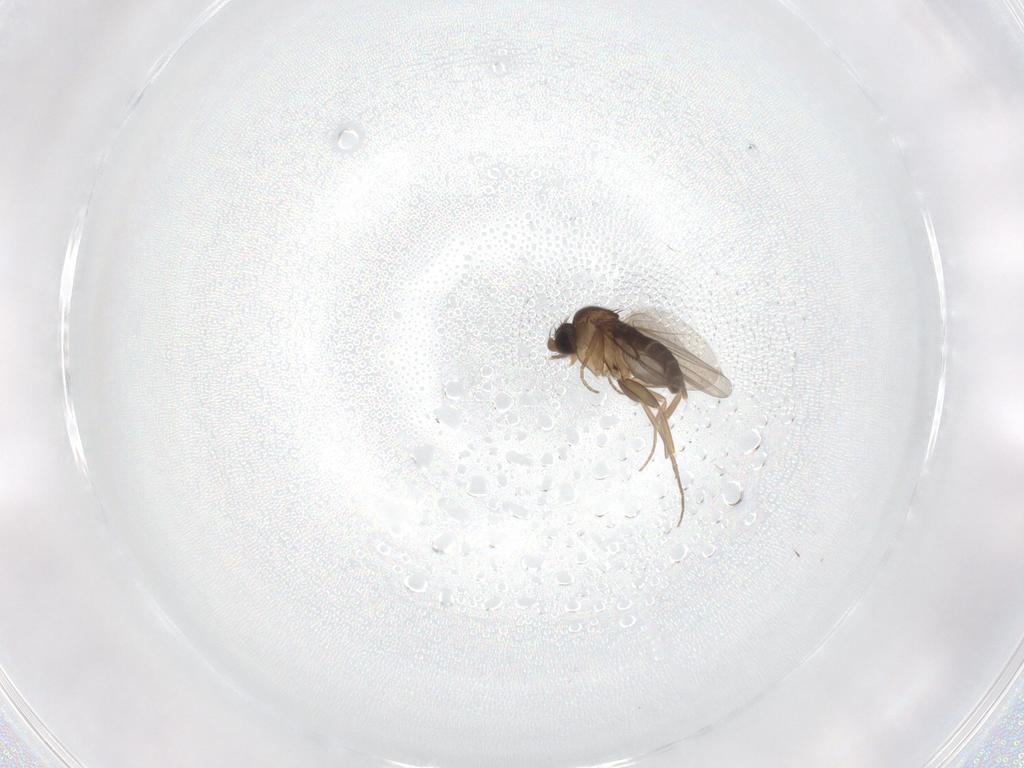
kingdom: Animalia
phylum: Arthropoda
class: Insecta
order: Diptera
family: Phoridae
